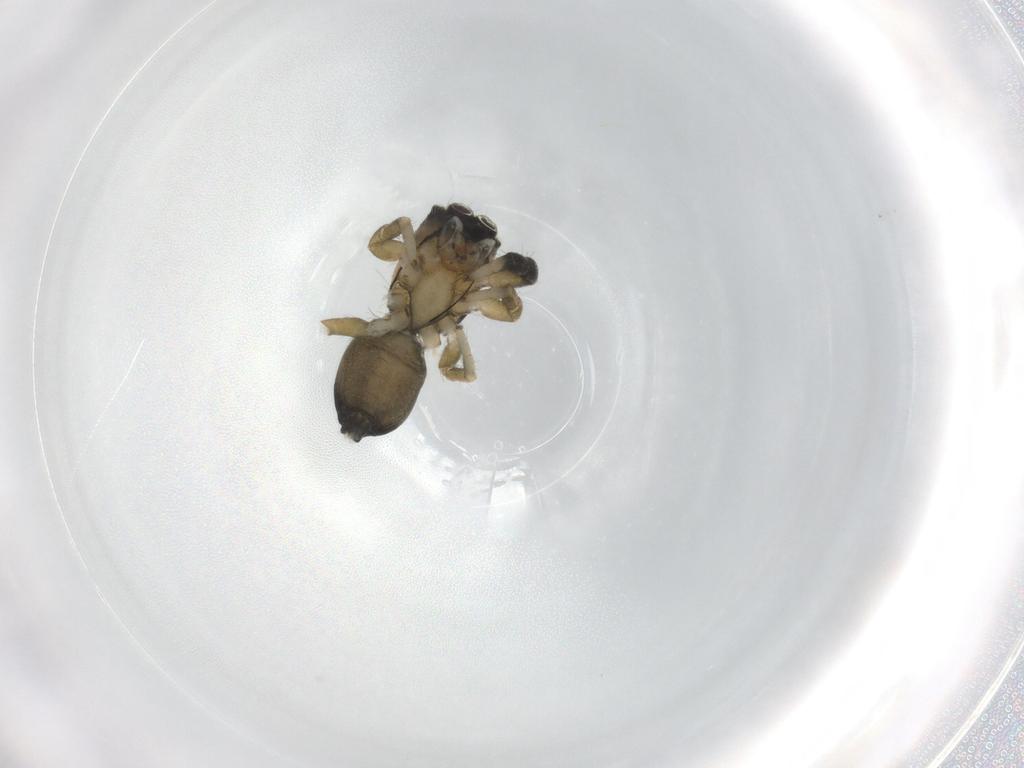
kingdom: Animalia
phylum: Arthropoda
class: Arachnida
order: Araneae
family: Salticidae
